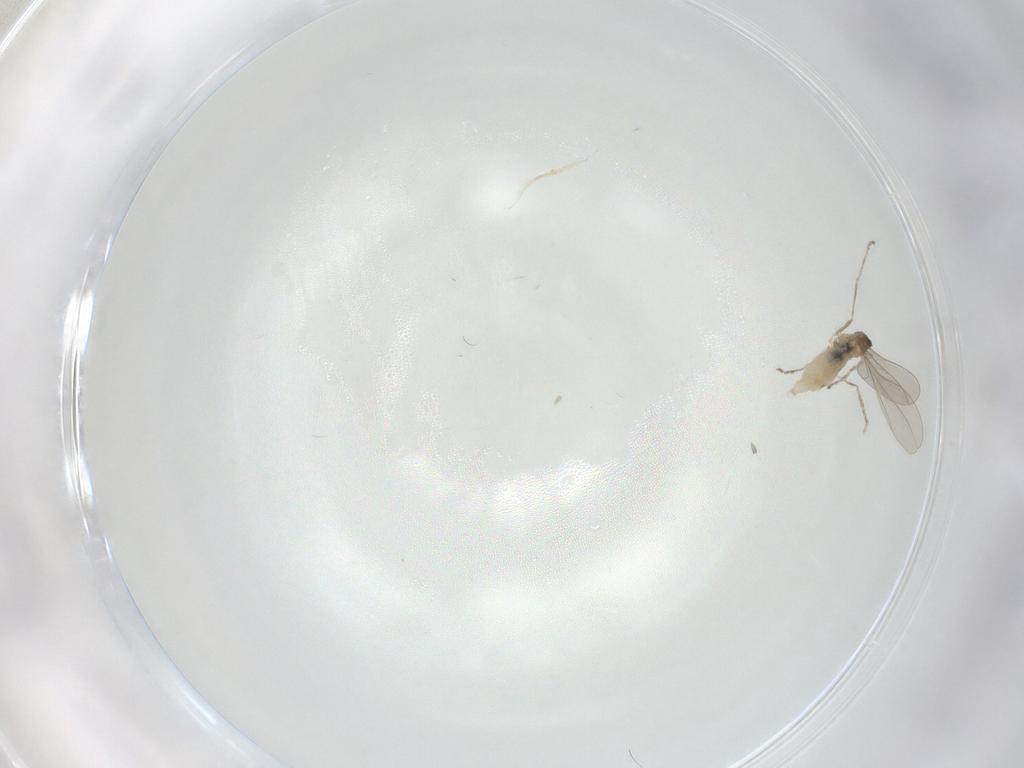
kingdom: Animalia
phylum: Arthropoda
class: Insecta
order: Diptera
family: Cecidomyiidae
